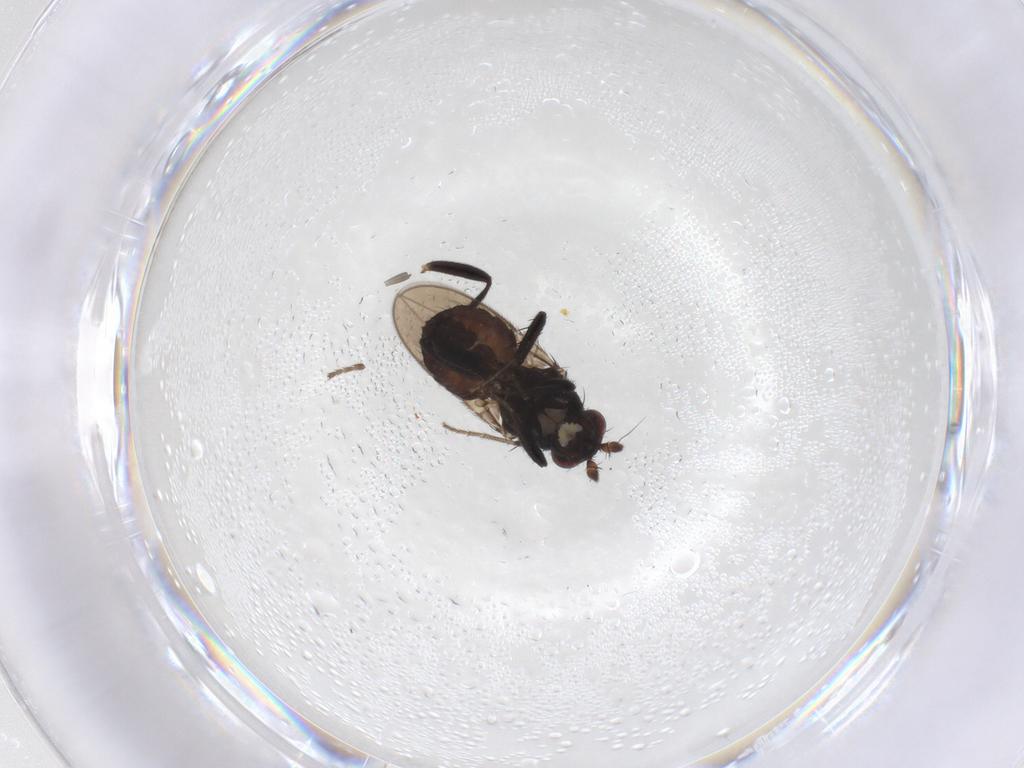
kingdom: Animalia
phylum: Arthropoda
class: Insecta
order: Diptera
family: Sphaeroceridae
